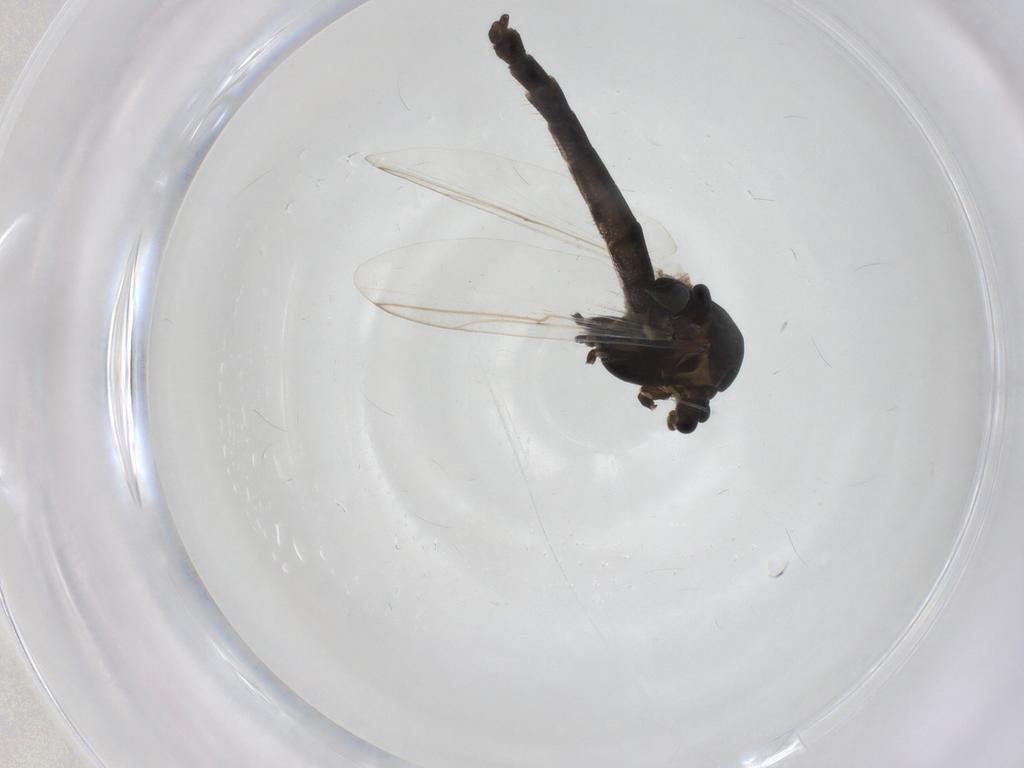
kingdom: Animalia
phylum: Arthropoda
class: Insecta
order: Diptera
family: Chironomidae
